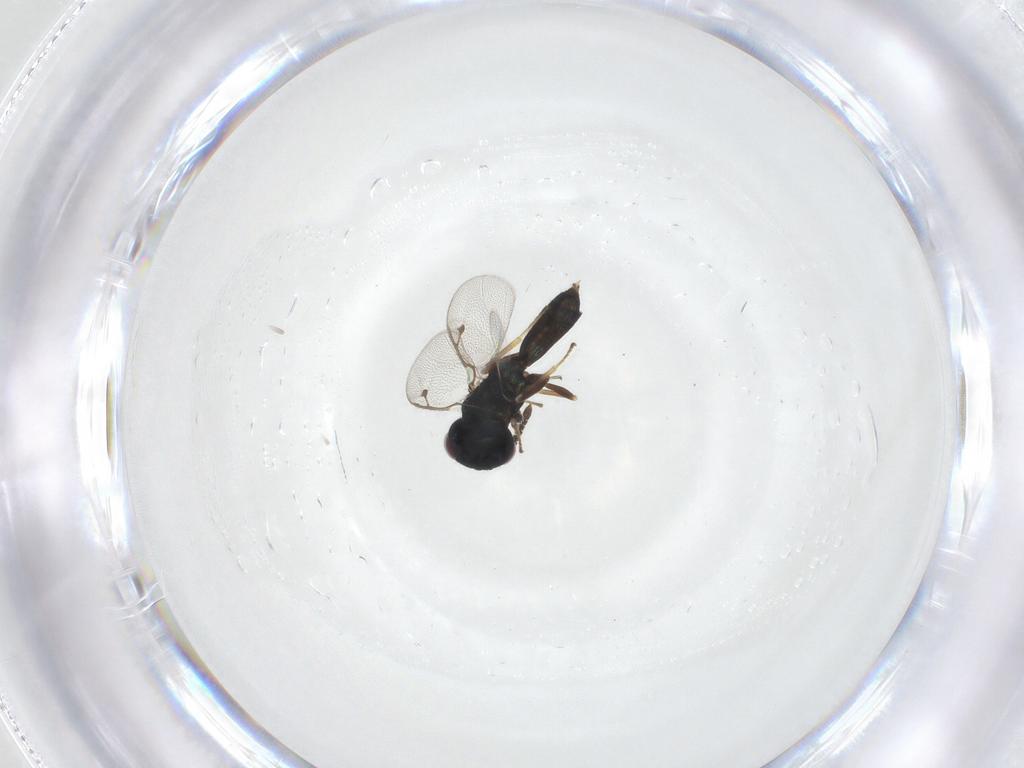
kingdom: Animalia
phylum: Arthropoda
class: Insecta
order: Hymenoptera
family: Pteromalidae
